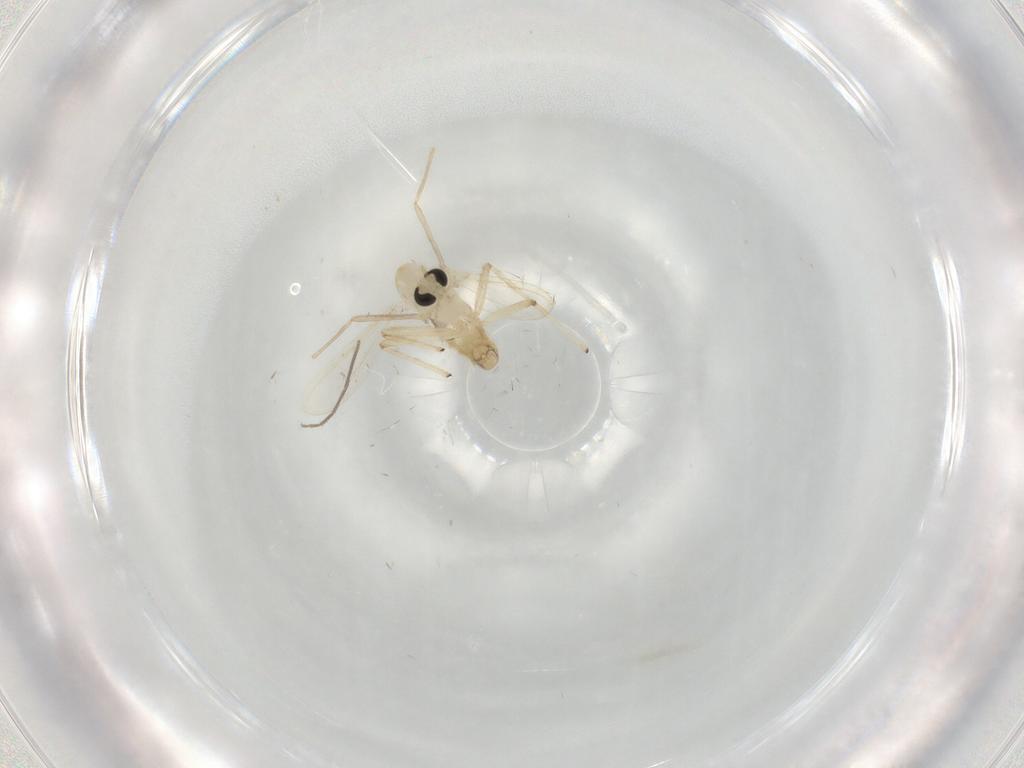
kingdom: Animalia
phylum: Arthropoda
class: Insecta
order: Diptera
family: Chironomidae
